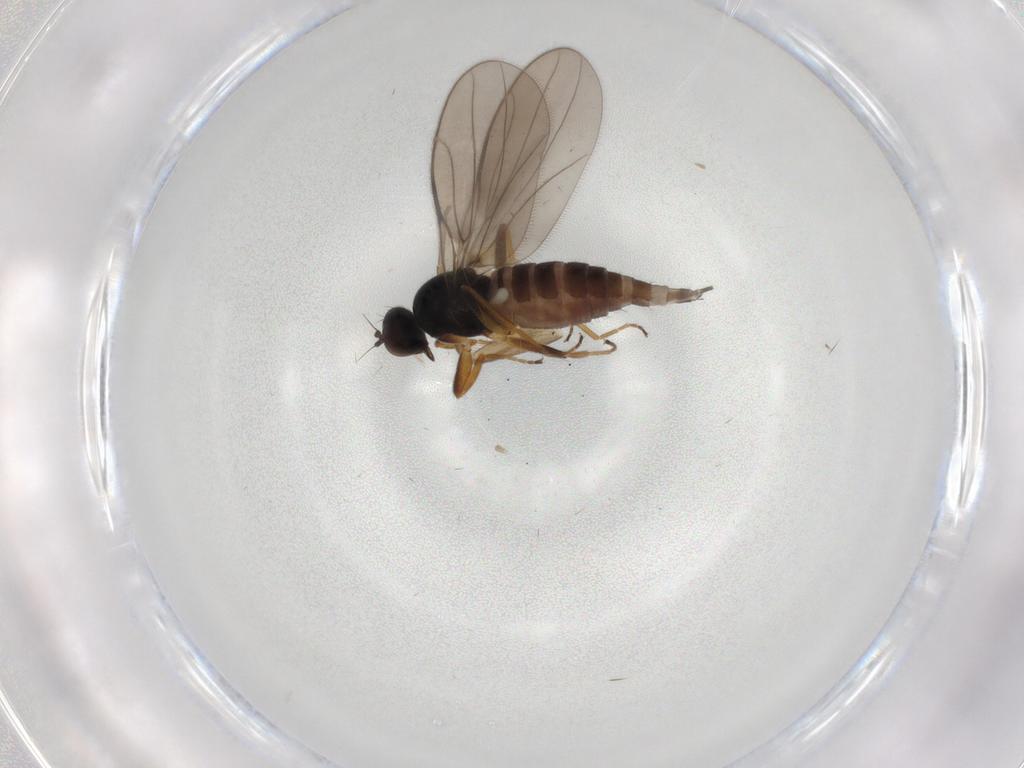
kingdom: Animalia
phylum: Arthropoda
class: Insecta
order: Diptera
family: Hybotidae
